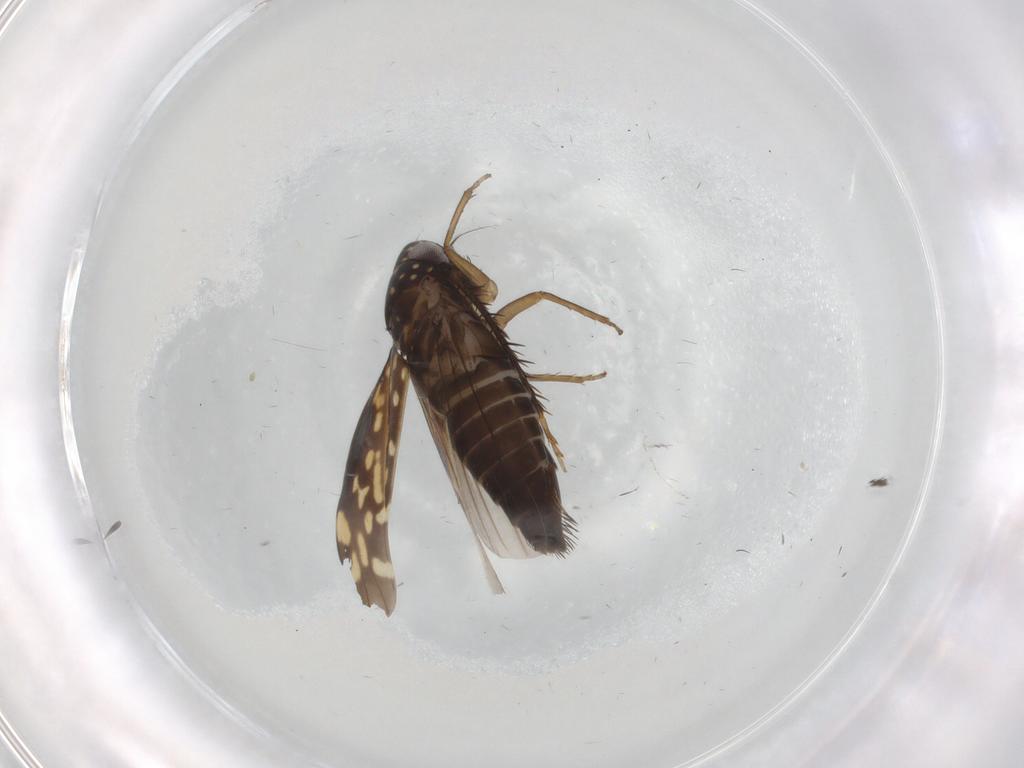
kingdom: Animalia
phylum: Arthropoda
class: Insecta
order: Hemiptera
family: Cicadellidae
